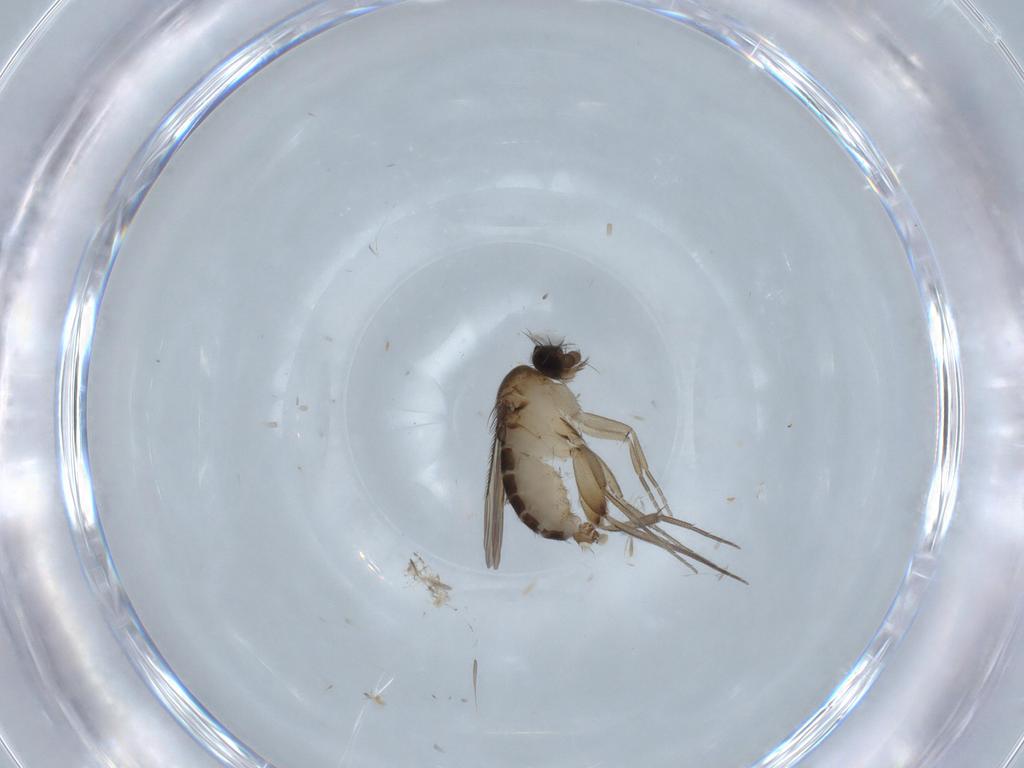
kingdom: Animalia
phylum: Arthropoda
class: Insecta
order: Diptera
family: Phoridae
